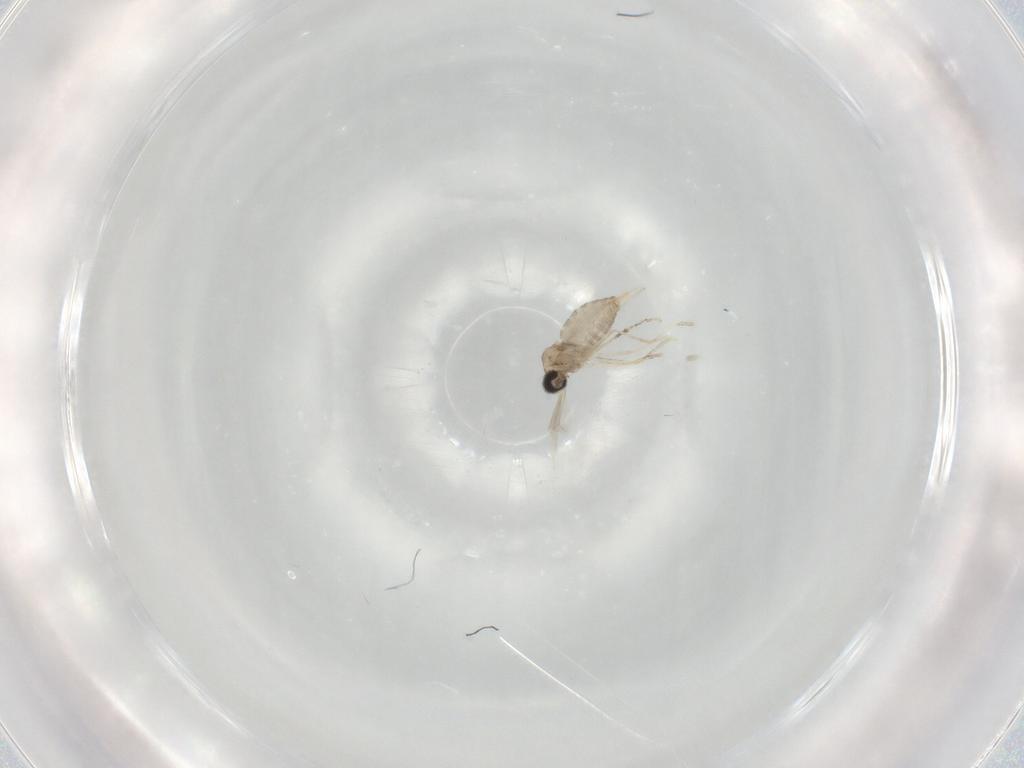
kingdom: Animalia
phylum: Arthropoda
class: Insecta
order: Diptera
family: Cecidomyiidae
